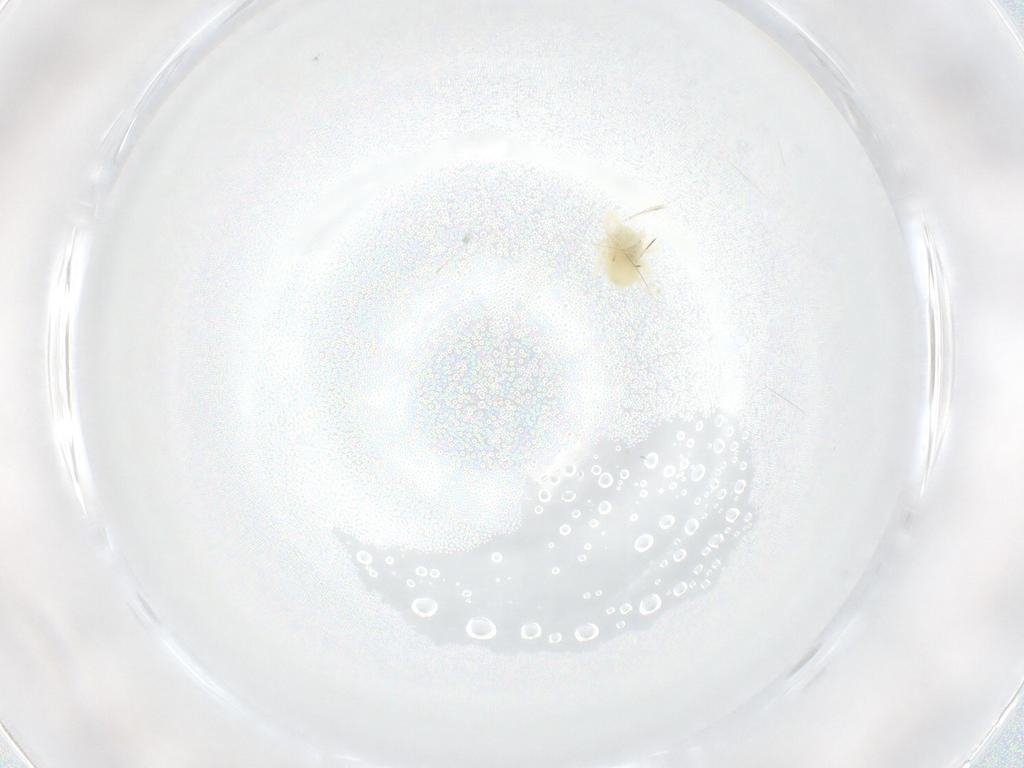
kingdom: Animalia
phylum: Arthropoda
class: Arachnida
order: Trombidiformes
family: Anystidae
